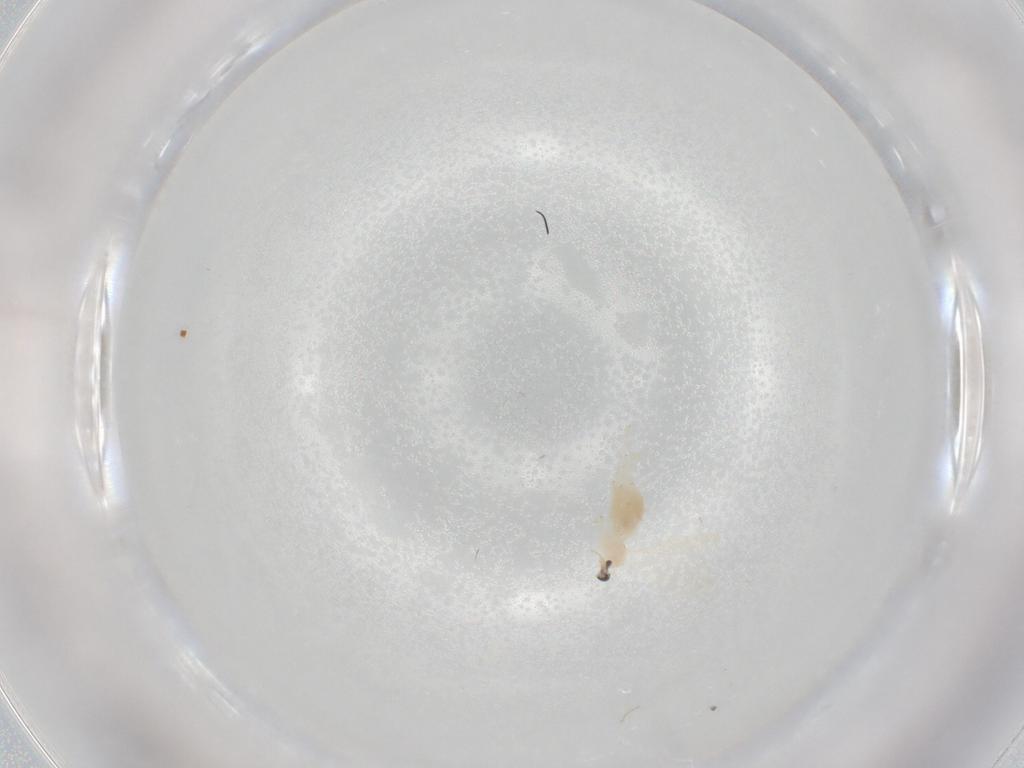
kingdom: Animalia
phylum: Arthropoda
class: Insecta
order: Diptera
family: Cecidomyiidae
